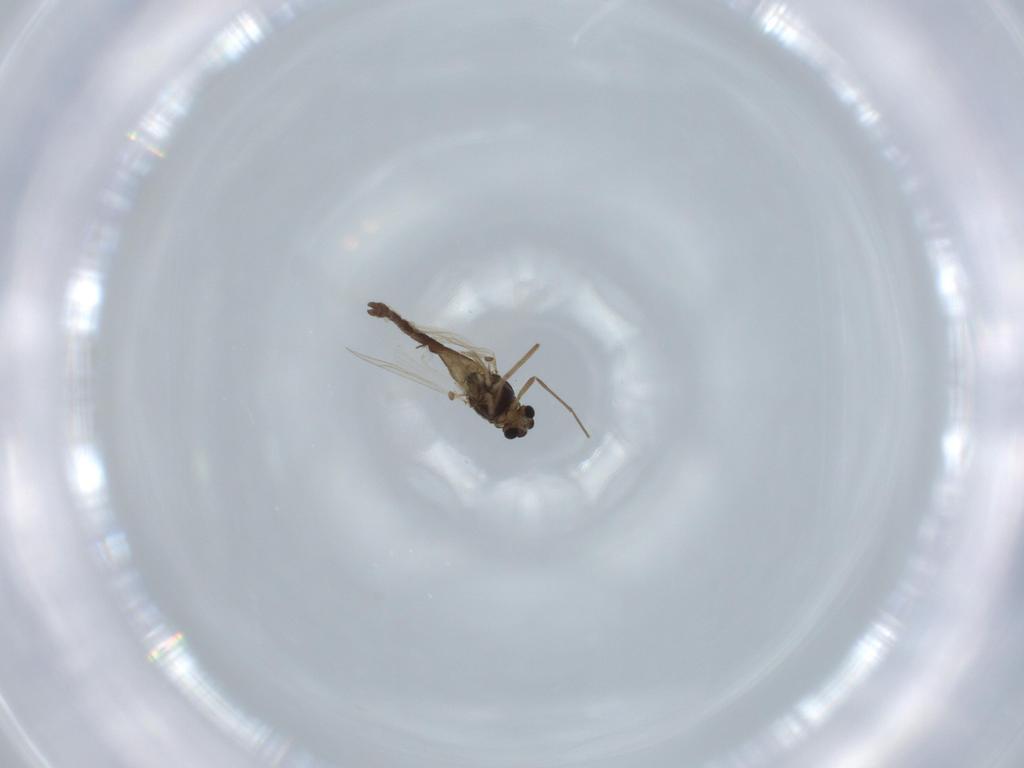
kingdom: Animalia
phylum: Arthropoda
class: Insecta
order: Diptera
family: Chironomidae
